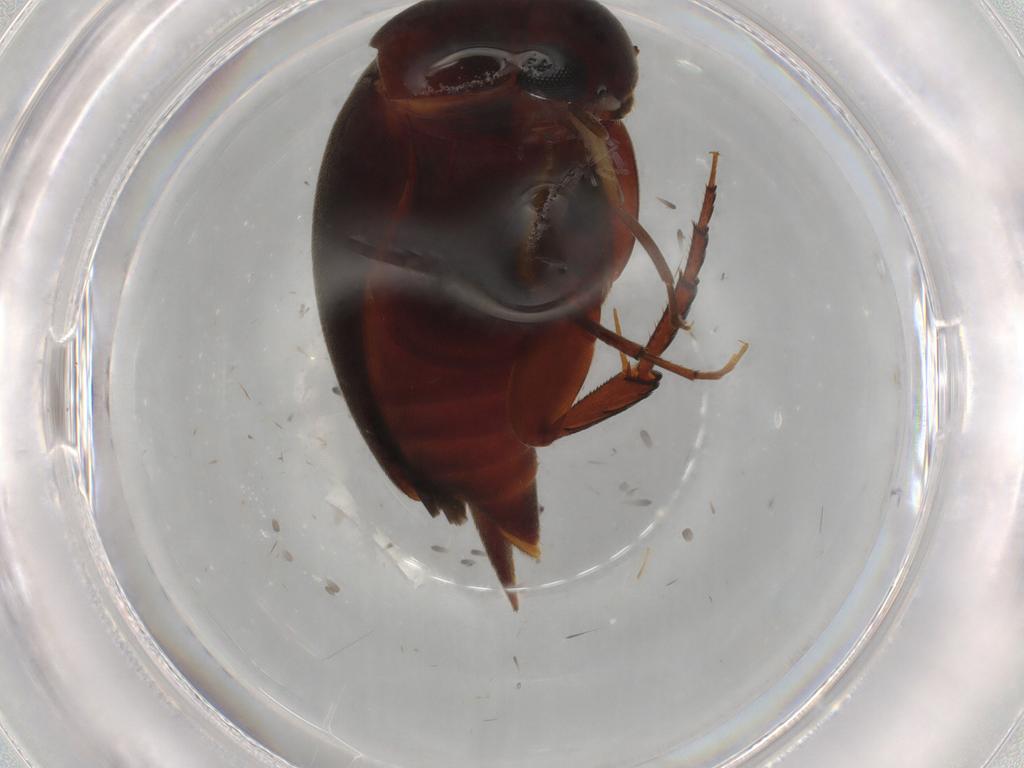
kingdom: Animalia
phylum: Arthropoda
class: Insecta
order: Coleoptera
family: Mordellidae
